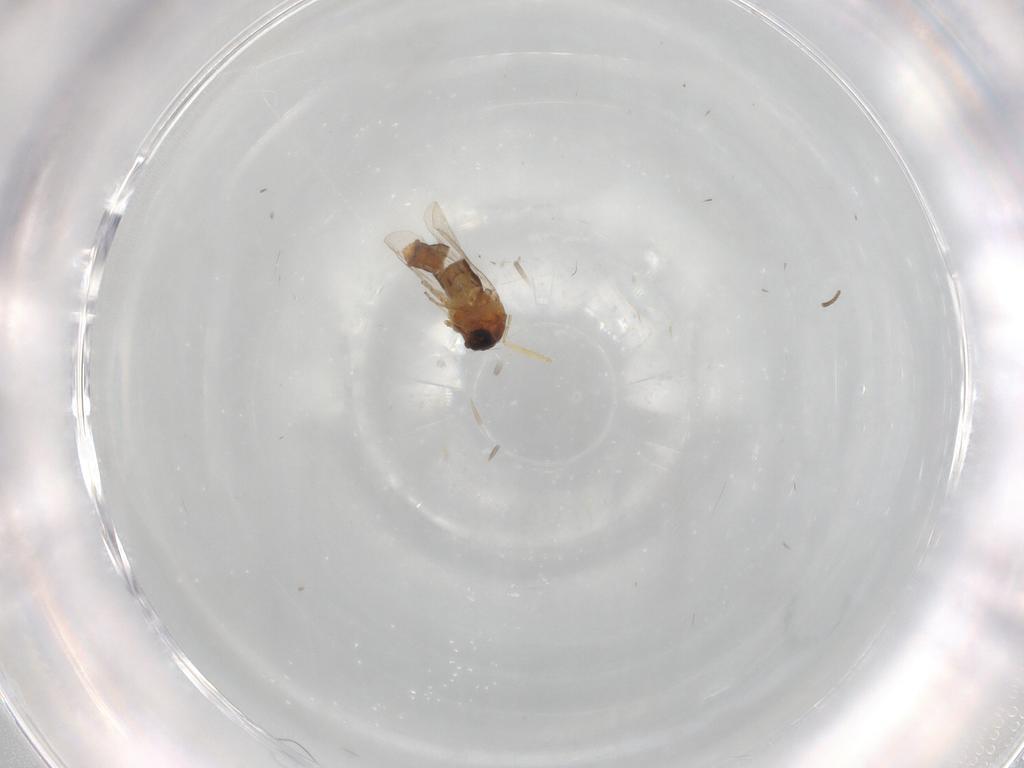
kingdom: Animalia
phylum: Arthropoda
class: Insecta
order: Diptera
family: Ceratopogonidae
